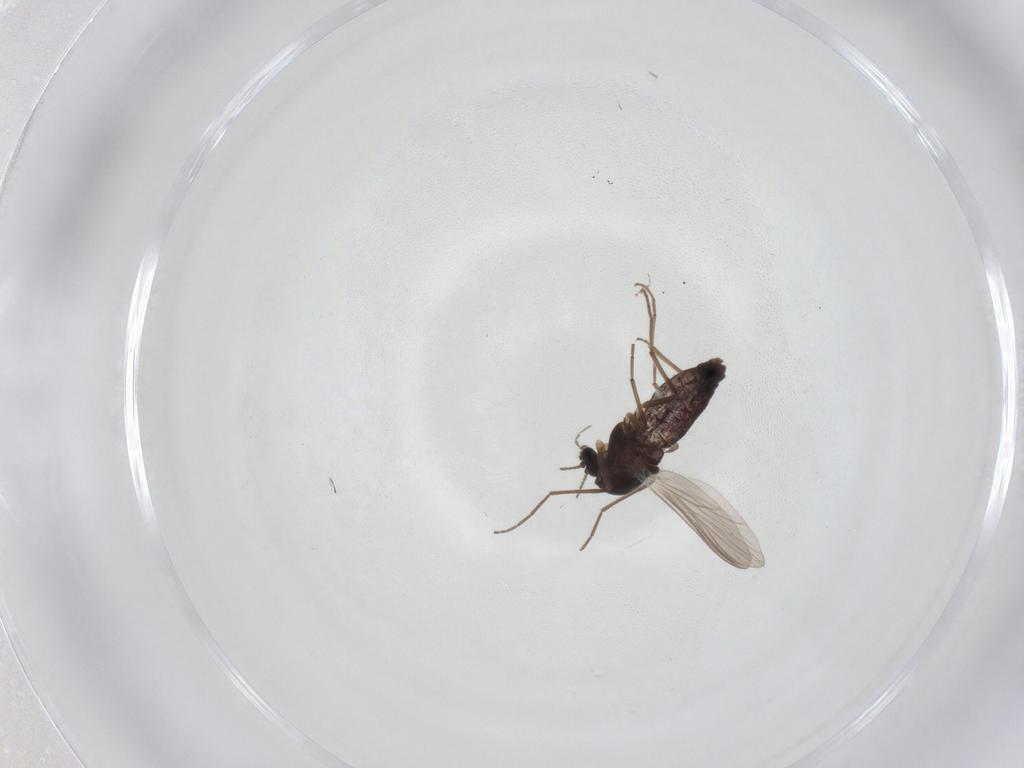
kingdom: Animalia
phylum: Arthropoda
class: Insecta
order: Diptera
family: Chironomidae
